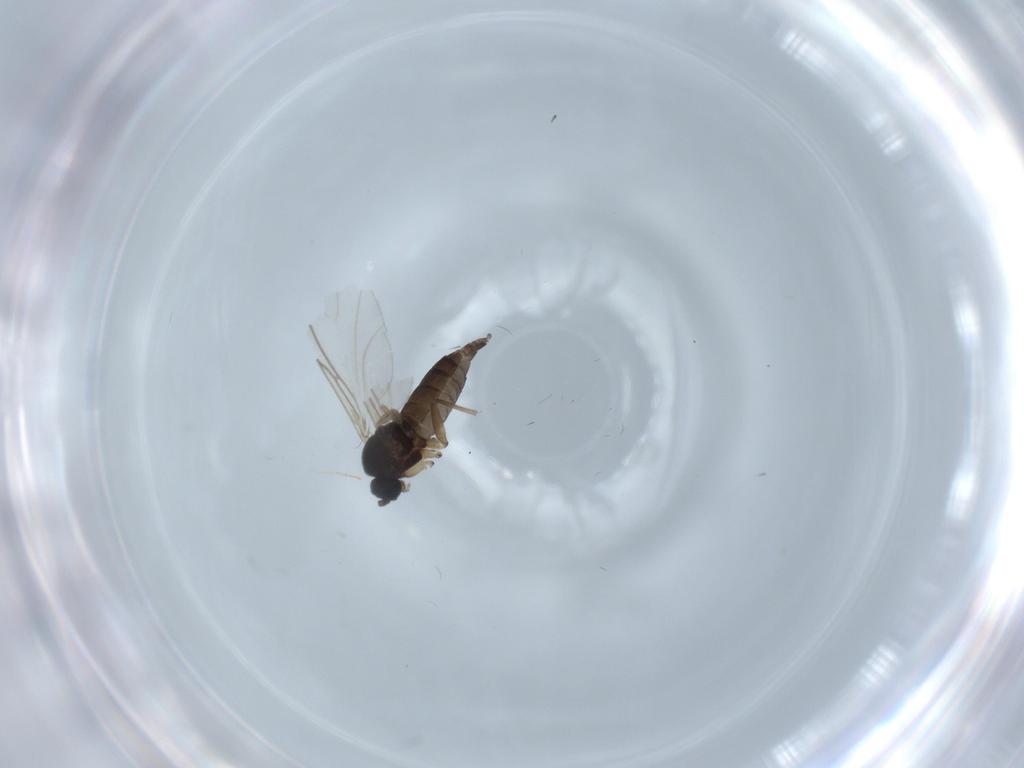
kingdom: Animalia
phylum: Arthropoda
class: Insecta
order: Diptera
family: Sciaridae
